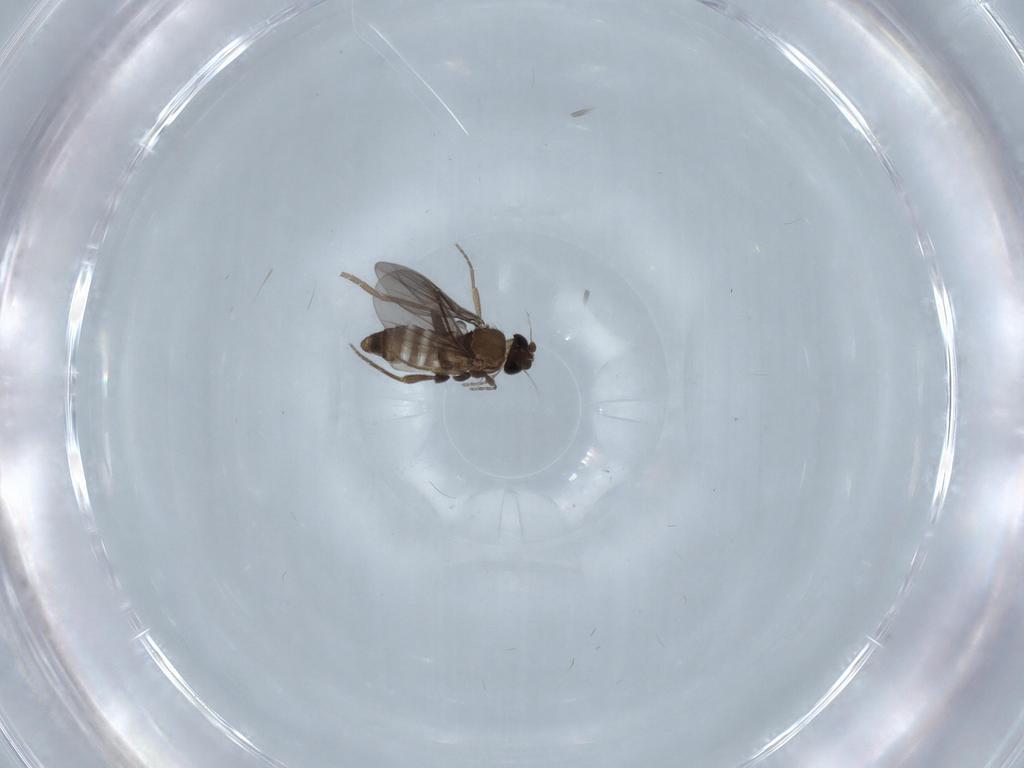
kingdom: Animalia
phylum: Arthropoda
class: Insecta
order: Diptera
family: Phoridae
